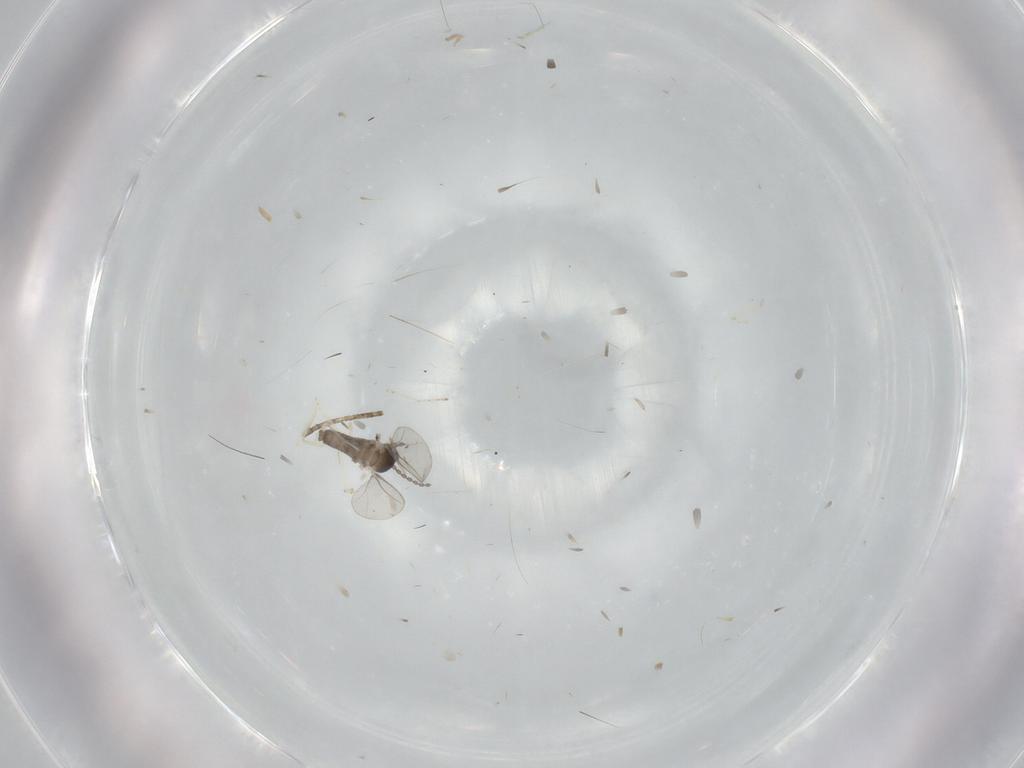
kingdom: Animalia
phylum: Arthropoda
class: Insecta
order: Diptera
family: Cecidomyiidae
